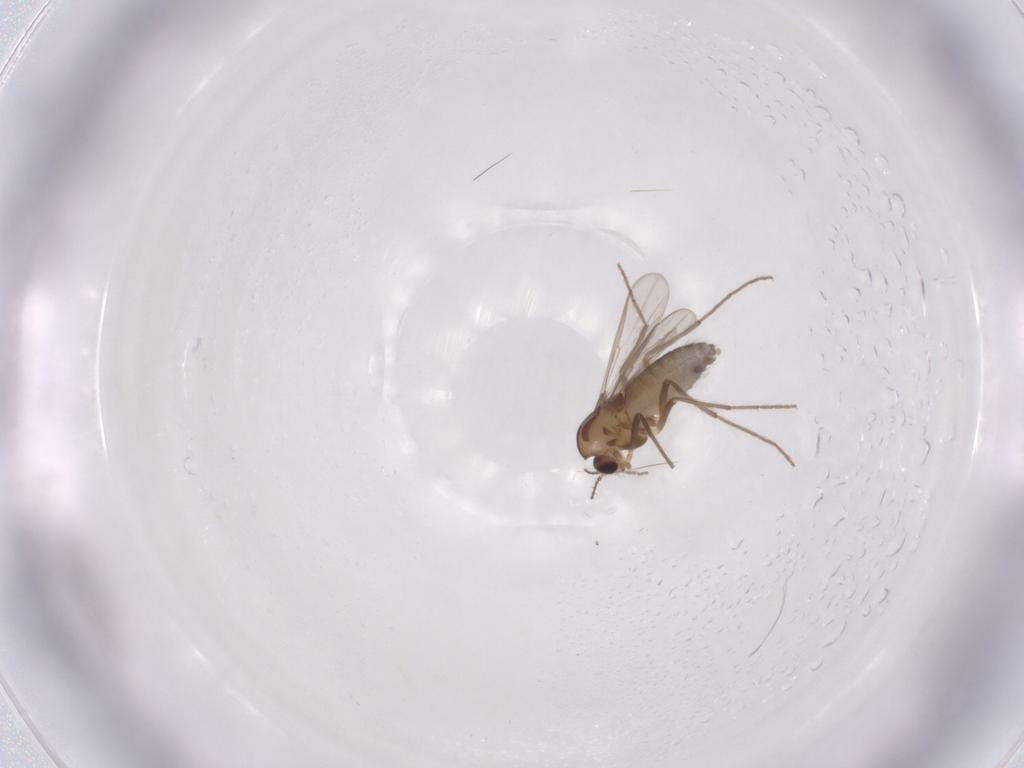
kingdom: Animalia
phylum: Arthropoda
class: Insecta
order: Diptera
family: Chironomidae
